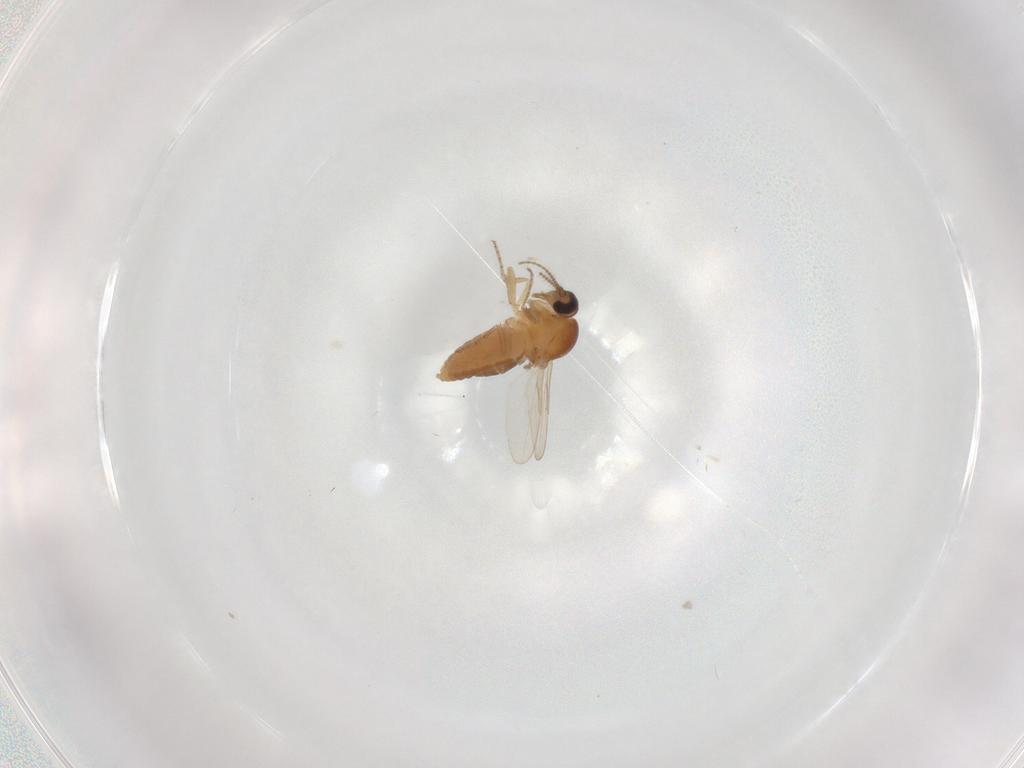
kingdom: Animalia
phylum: Arthropoda
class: Insecta
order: Diptera
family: Ceratopogonidae
